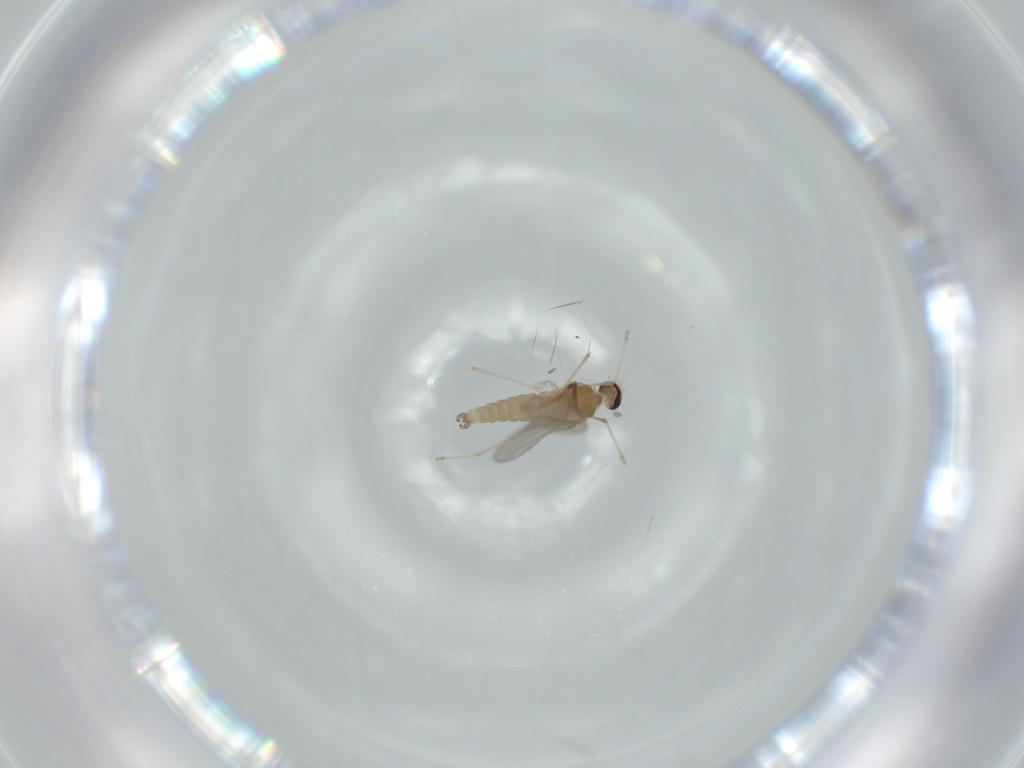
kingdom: Animalia
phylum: Arthropoda
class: Insecta
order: Diptera
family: Cecidomyiidae
